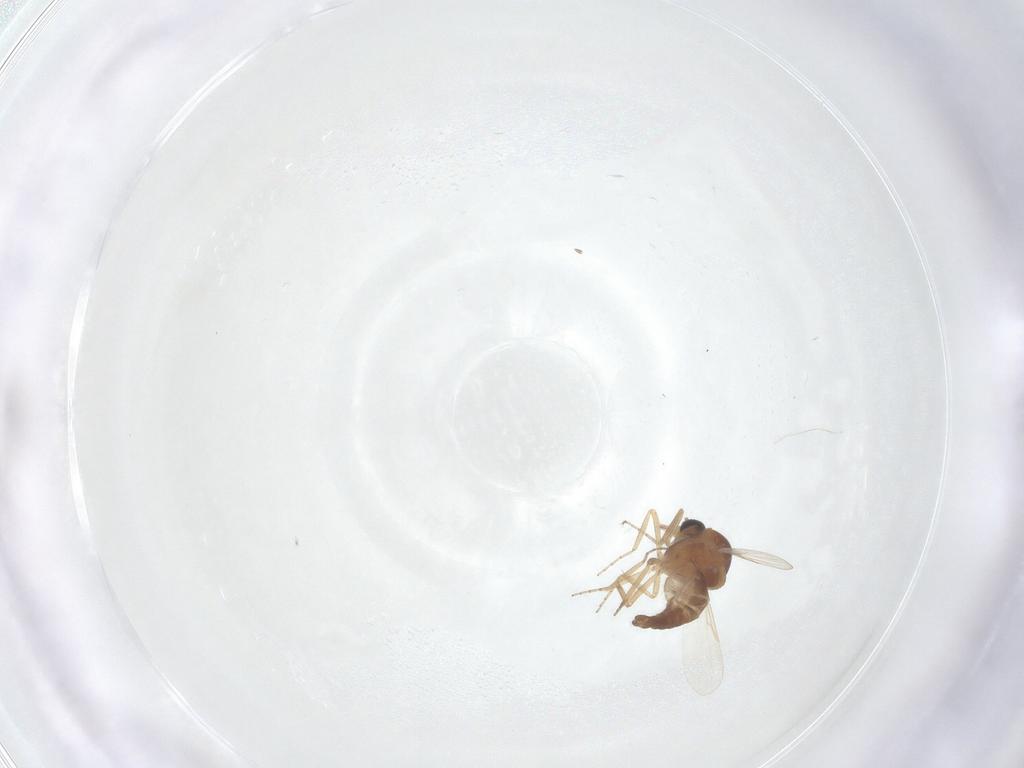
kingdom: Animalia
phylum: Arthropoda
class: Insecta
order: Diptera
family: Ceratopogonidae
